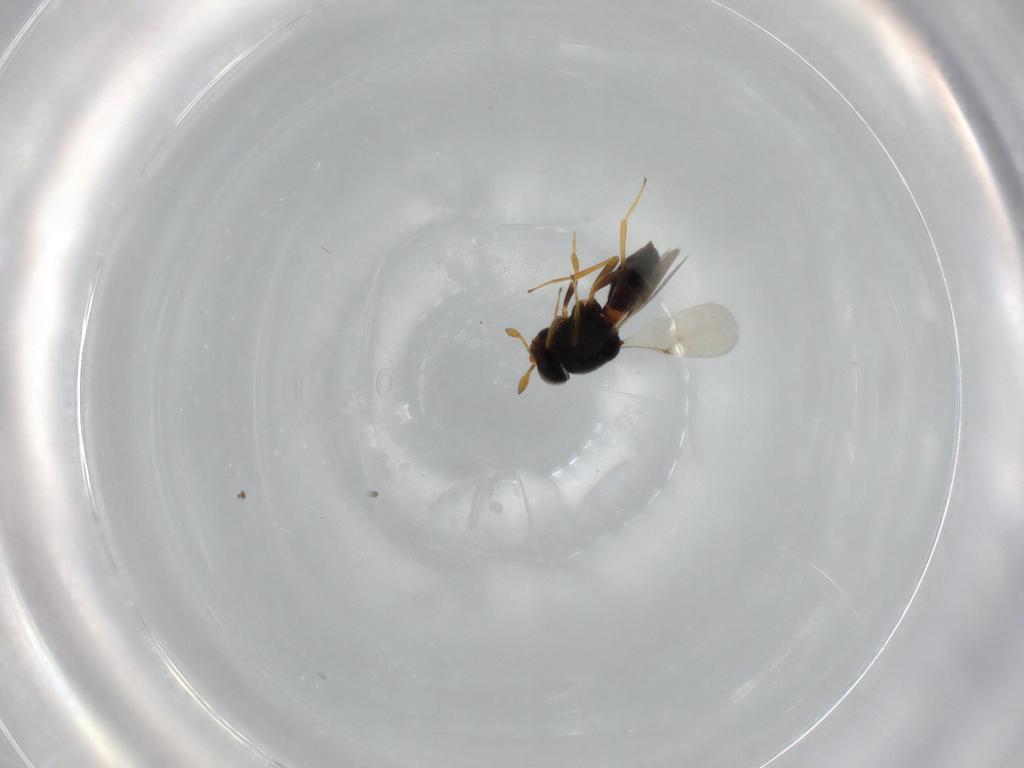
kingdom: Animalia
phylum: Arthropoda
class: Insecta
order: Hymenoptera
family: Scelionidae
